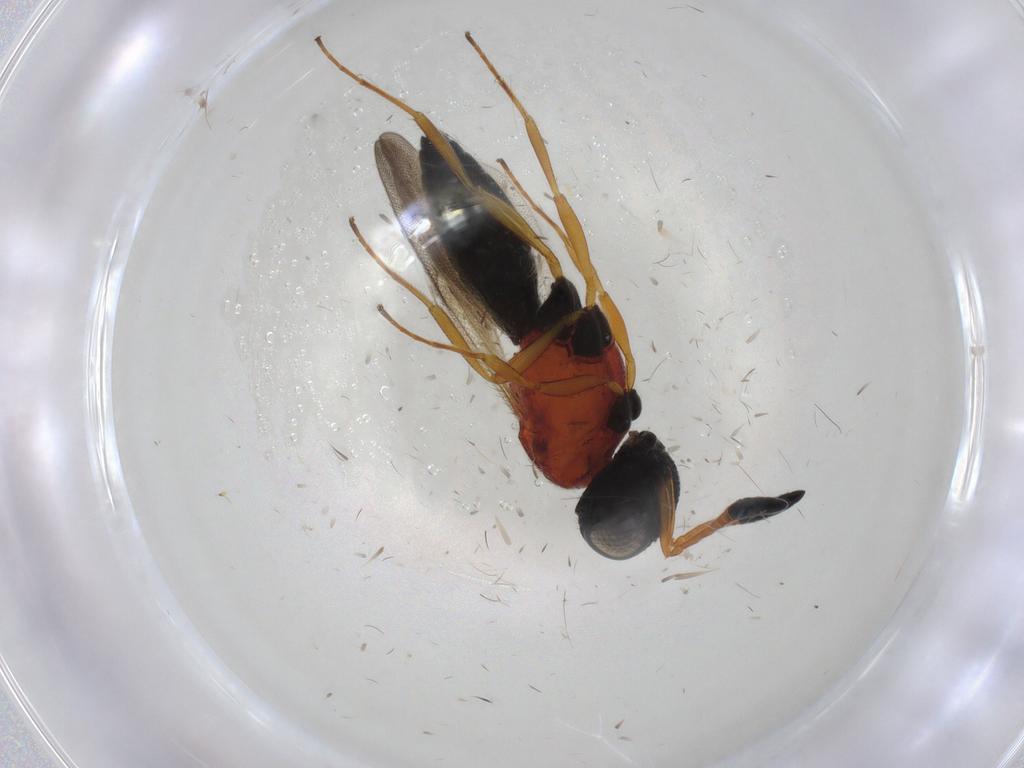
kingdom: Animalia
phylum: Arthropoda
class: Insecta
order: Hymenoptera
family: Scelionidae
